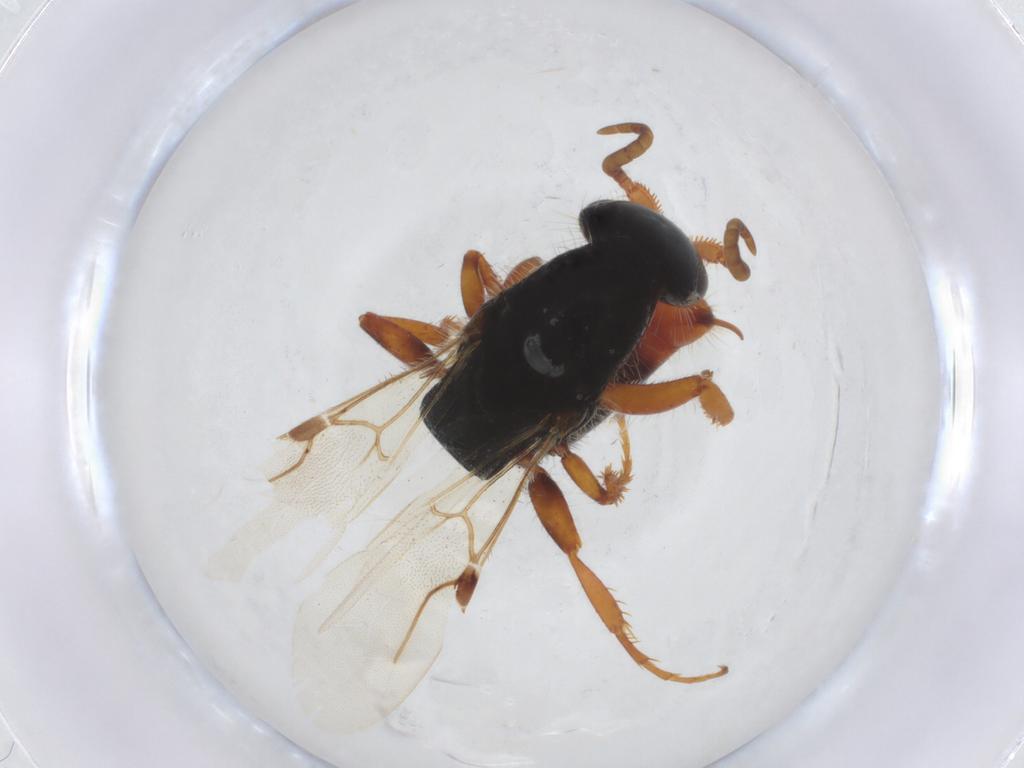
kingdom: Animalia
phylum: Arthropoda
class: Insecta
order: Hymenoptera
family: Bethylidae
